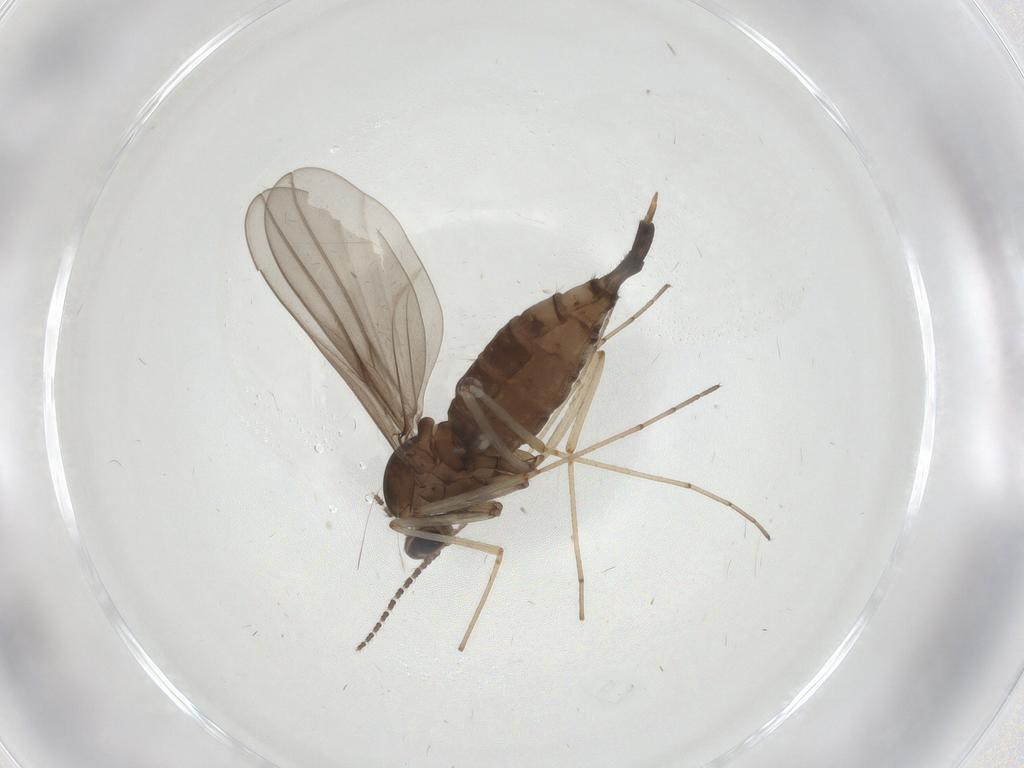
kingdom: Animalia
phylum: Arthropoda
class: Insecta
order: Diptera
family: Cecidomyiidae
